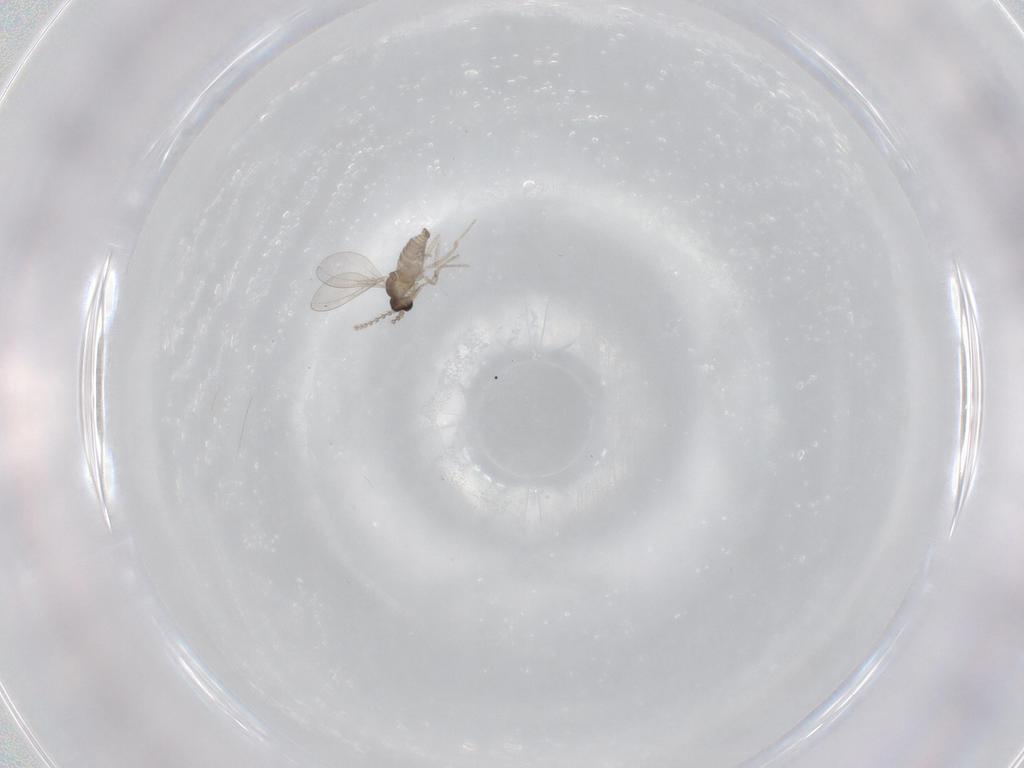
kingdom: Animalia
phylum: Arthropoda
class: Insecta
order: Diptera
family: Cecidomyiidae
